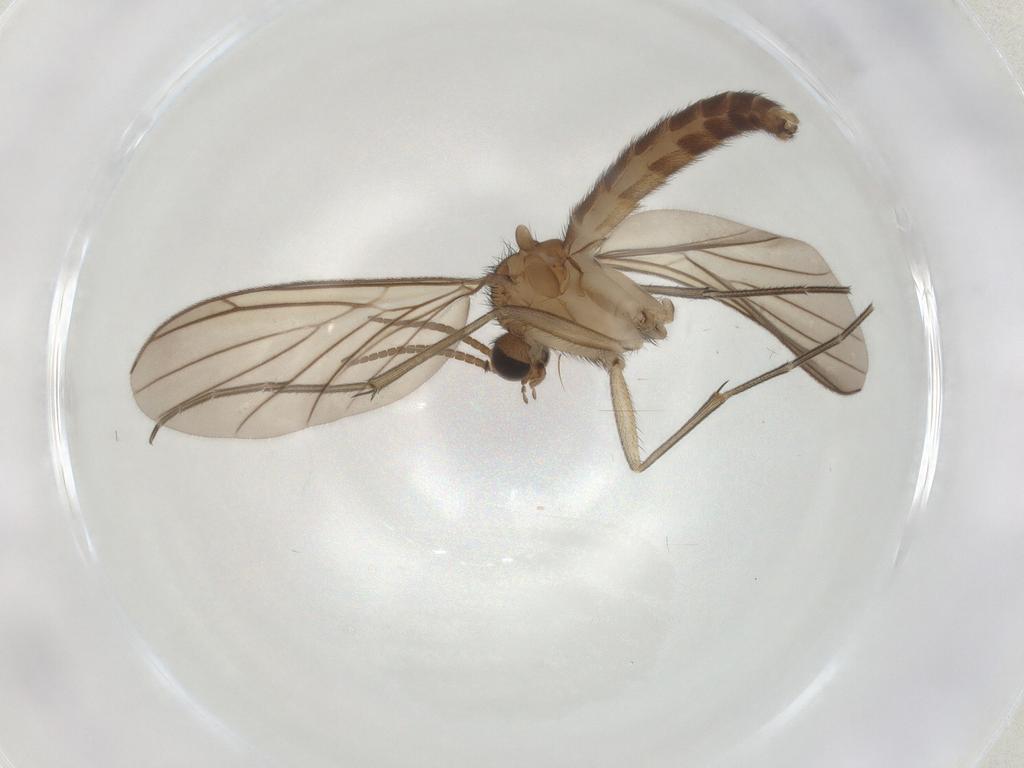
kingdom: Animalia
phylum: Arthropoda
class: Insecta
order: Diptera
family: Keroplatidae
